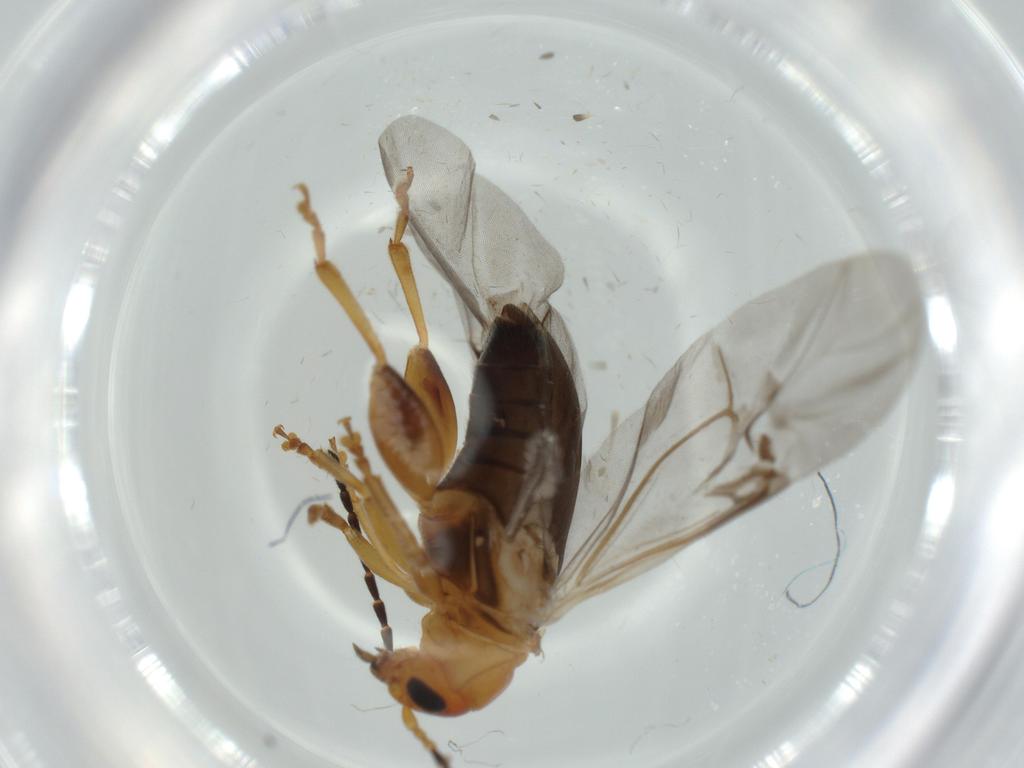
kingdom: Animalia
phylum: Arthropoda
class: Insecta
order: Coleoptera
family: Chrysomelidae
